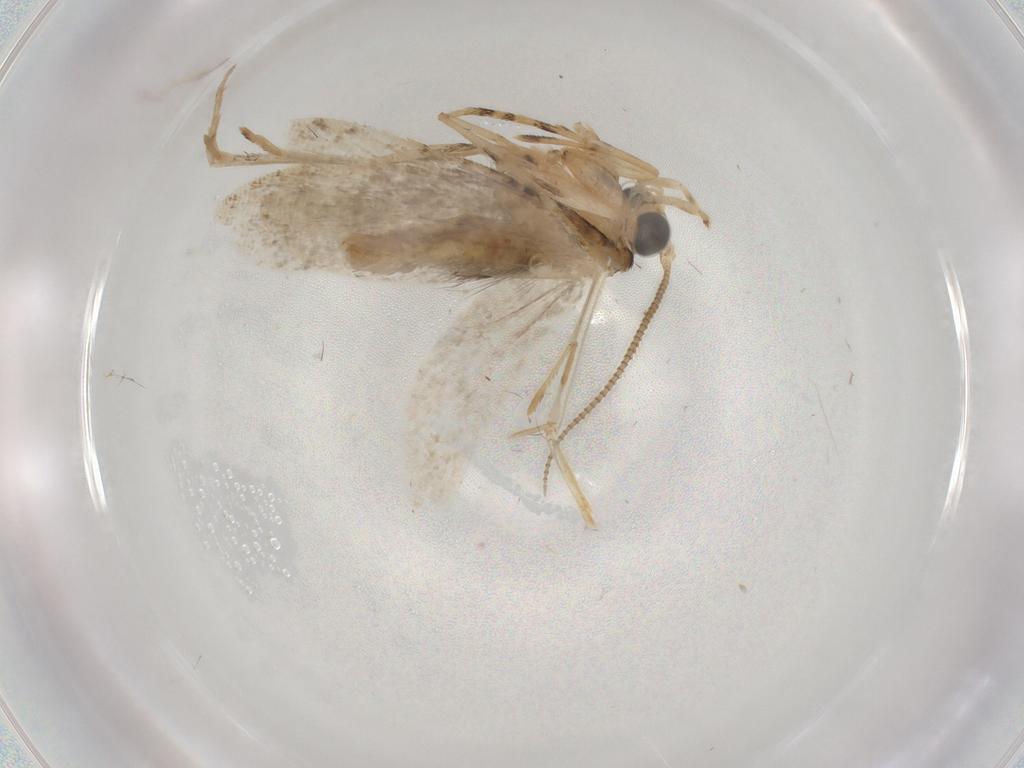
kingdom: Animalia
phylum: Arthropoda
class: Insecta
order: Lepidoptera
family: Tineidae
